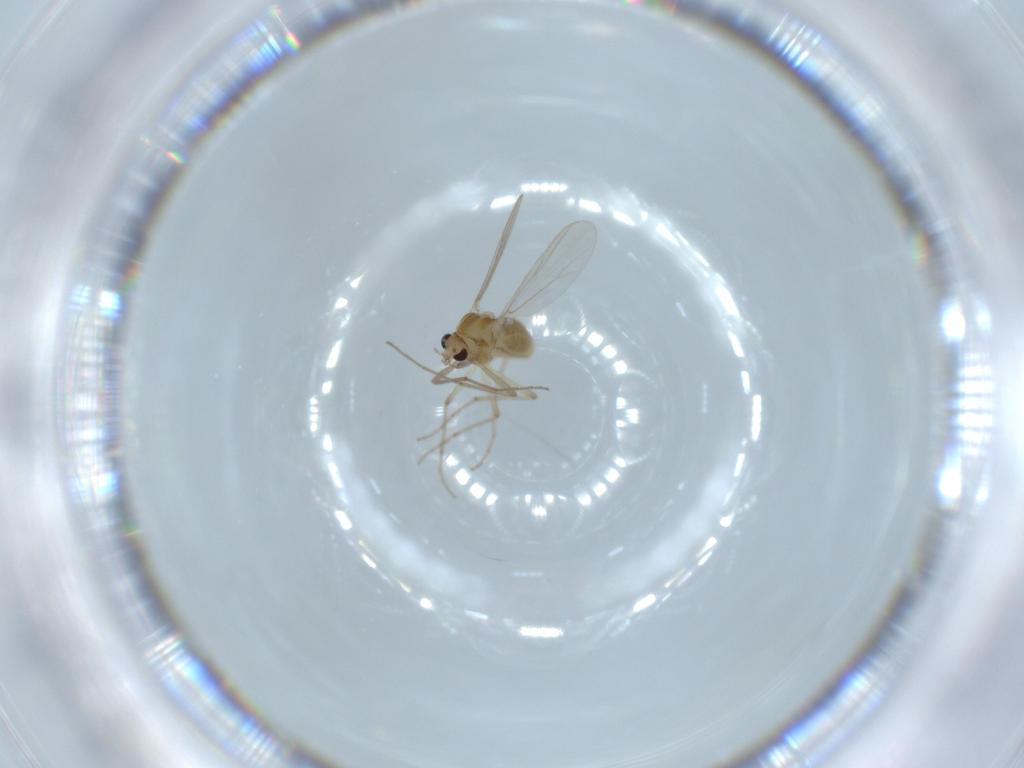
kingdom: Animalia
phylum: Arthropoda
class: Insecta
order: Diptera
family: Chironomidae
